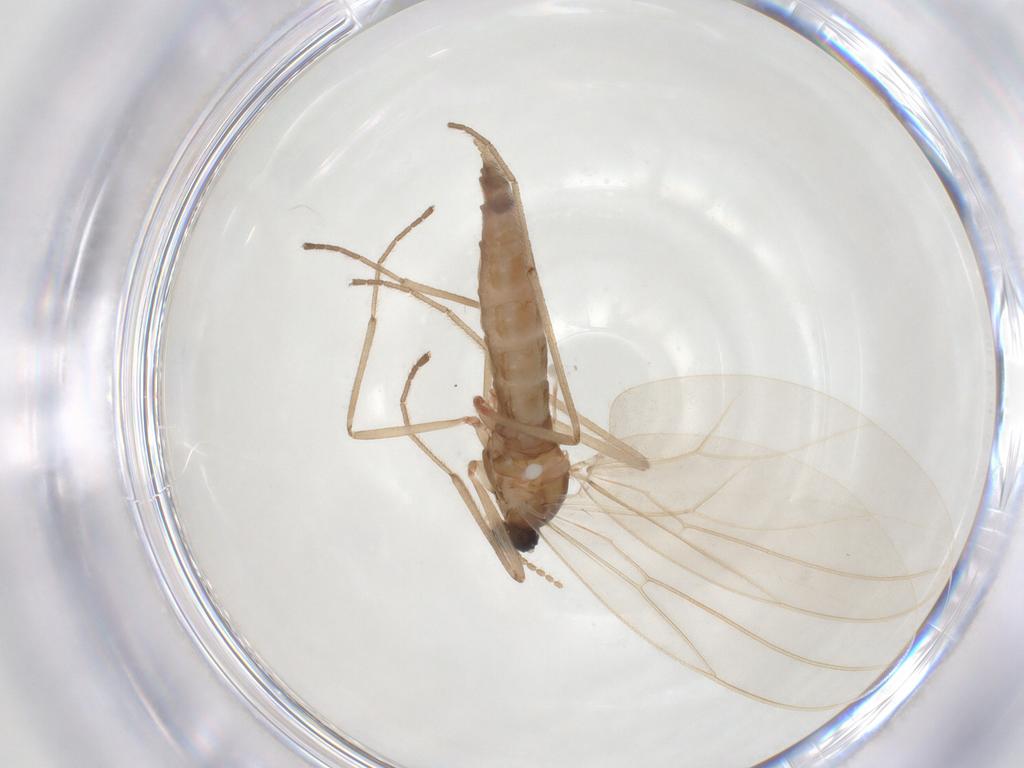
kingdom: Animalia
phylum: Arthropoda
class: Insecta
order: Diptera
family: Cecidomyiidae
